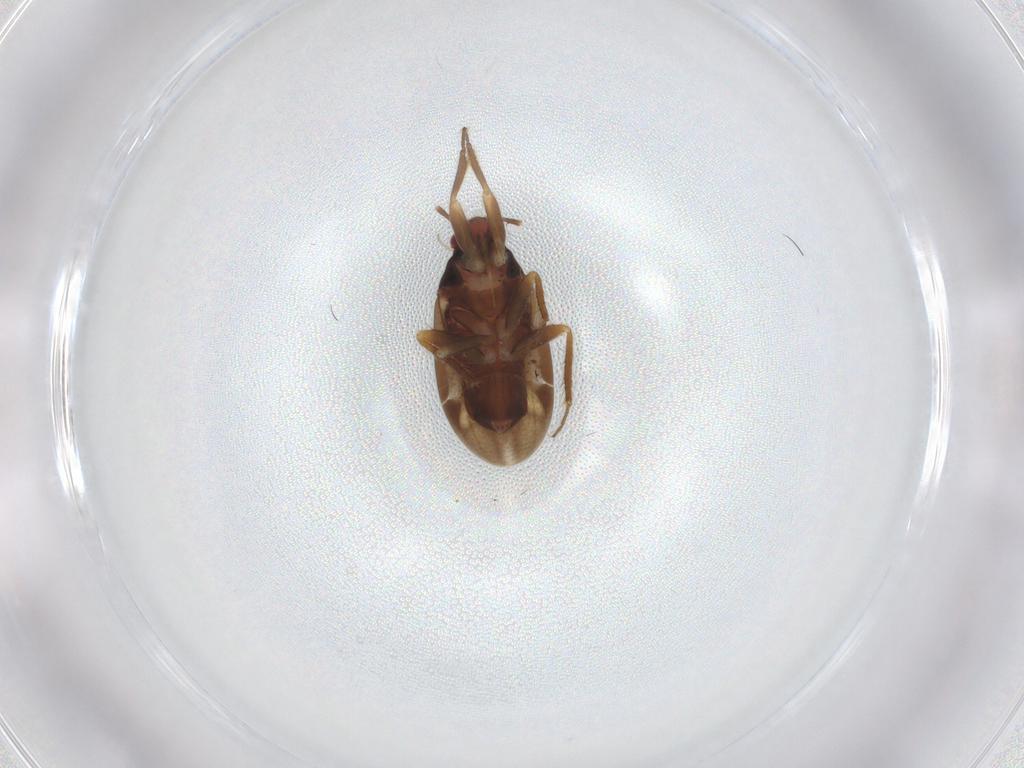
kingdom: Animalia
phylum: Arthropoda
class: Insecta
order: Hemiptera
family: Ceratocombidae
